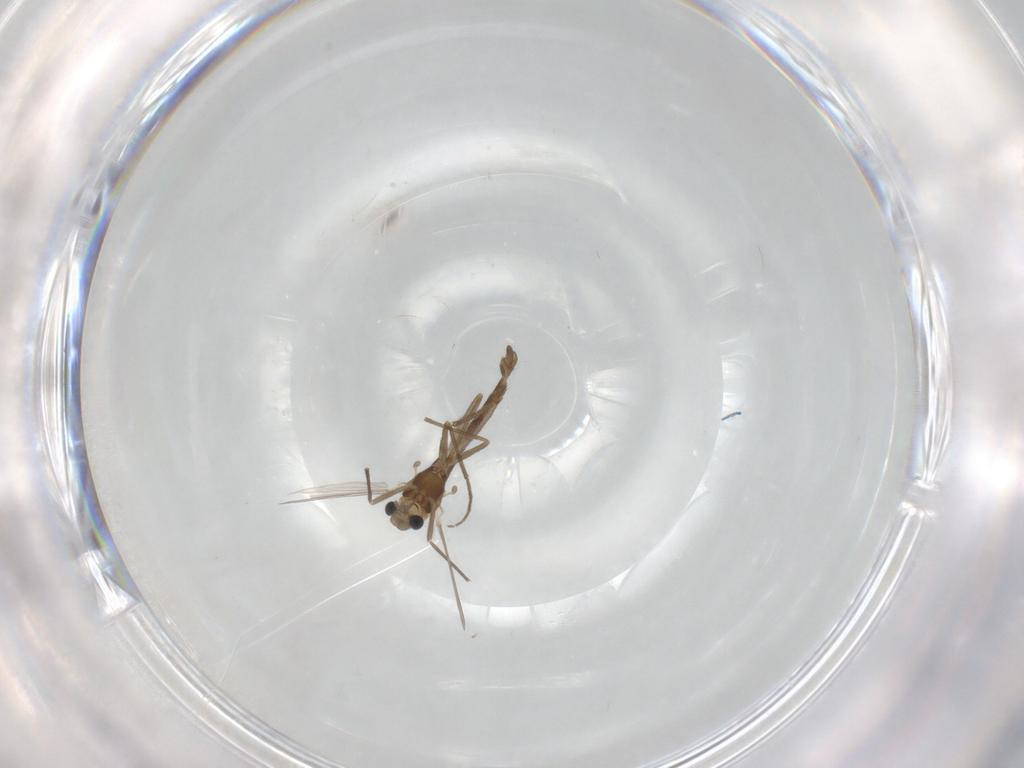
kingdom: Animalia
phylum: Arthropoda
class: Insecta
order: Diptera
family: Chironomidae
